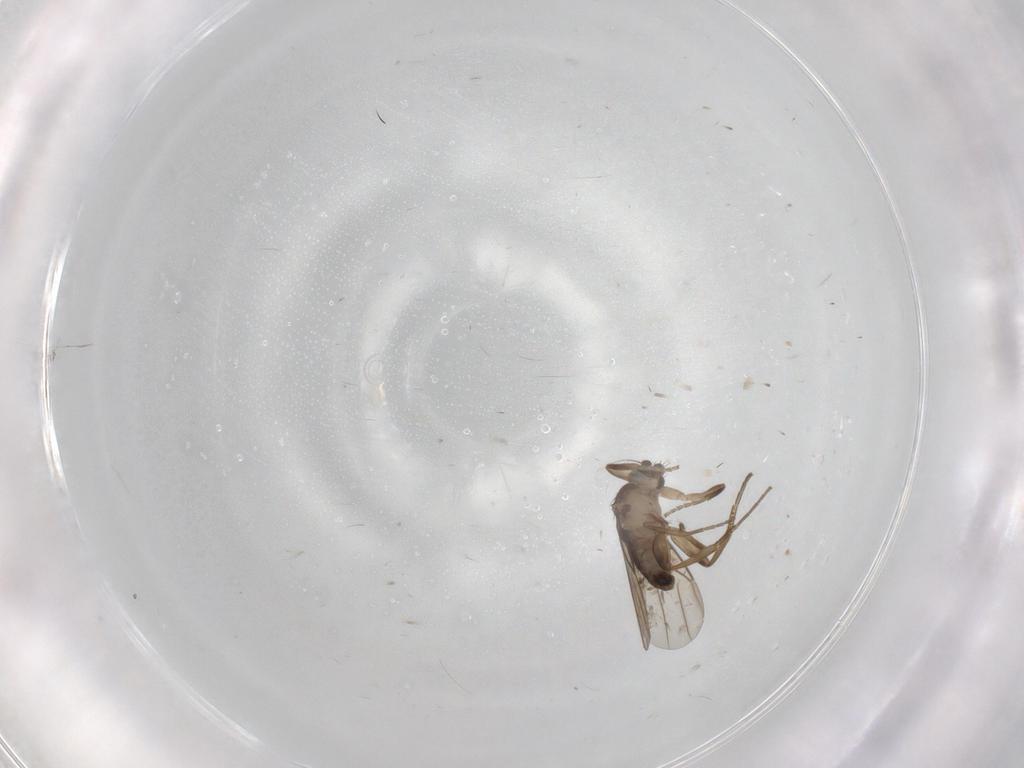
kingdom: Animalia
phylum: Arthropoda
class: Insecta
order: Diptera
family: Phoridae
